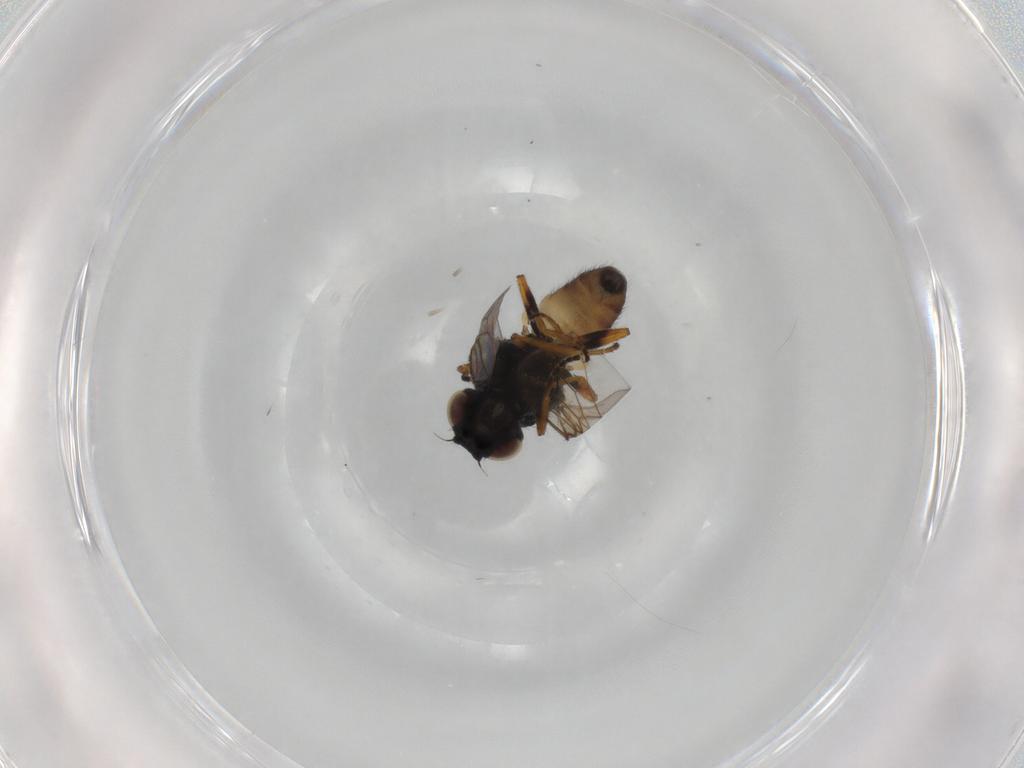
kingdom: Animalia
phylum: Arthropoda
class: Insecta
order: Diptera
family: Chloropidae
